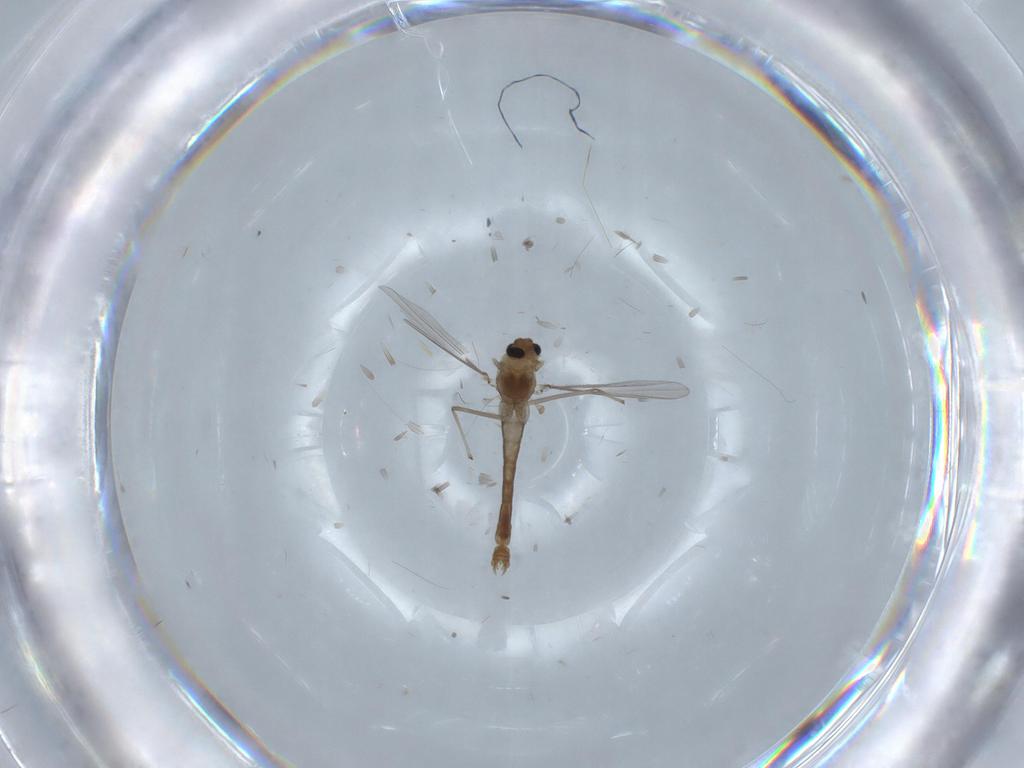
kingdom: Animalia
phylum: Arthropoda
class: Insecta
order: Diptera
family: Chironomidae
